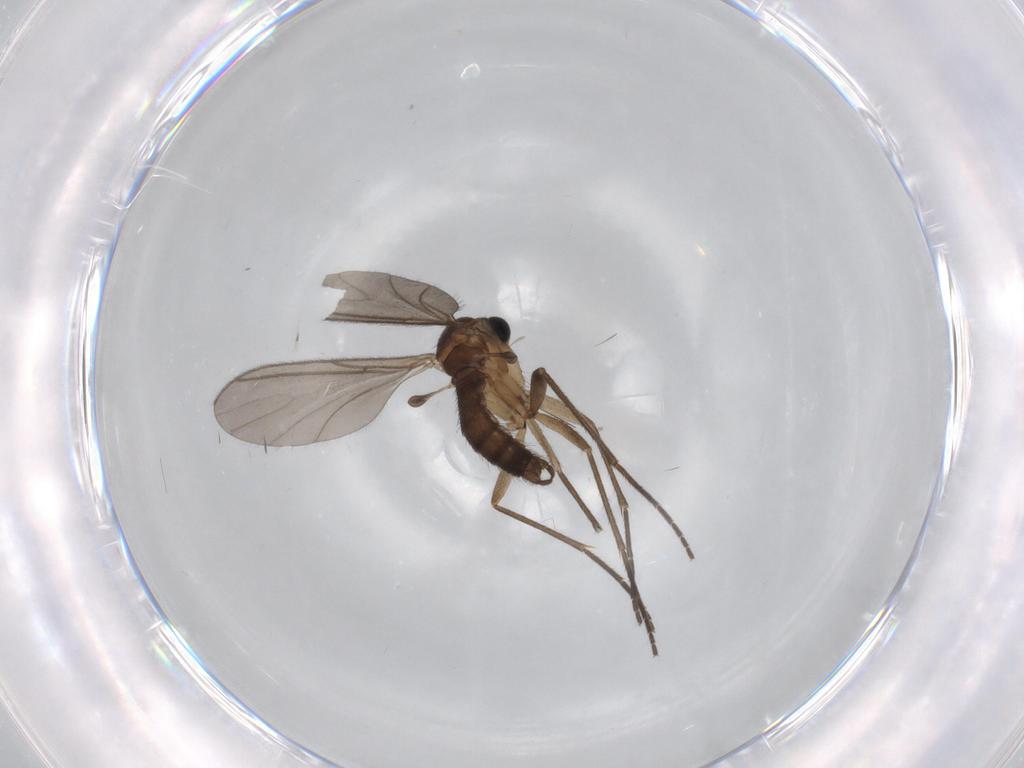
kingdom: Animalia
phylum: Arthropoda
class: Insecta
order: Diptera
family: Sciaridae
